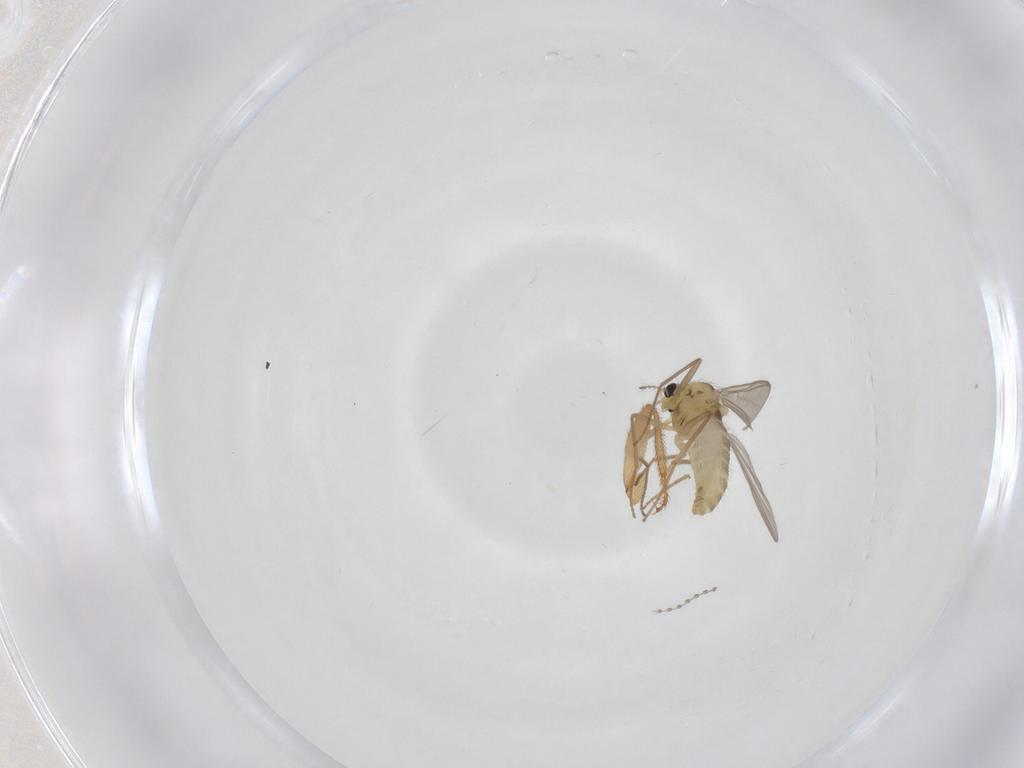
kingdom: Animalia
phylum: Arthropoda
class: Insecta
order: Diptera
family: Chironomidae
